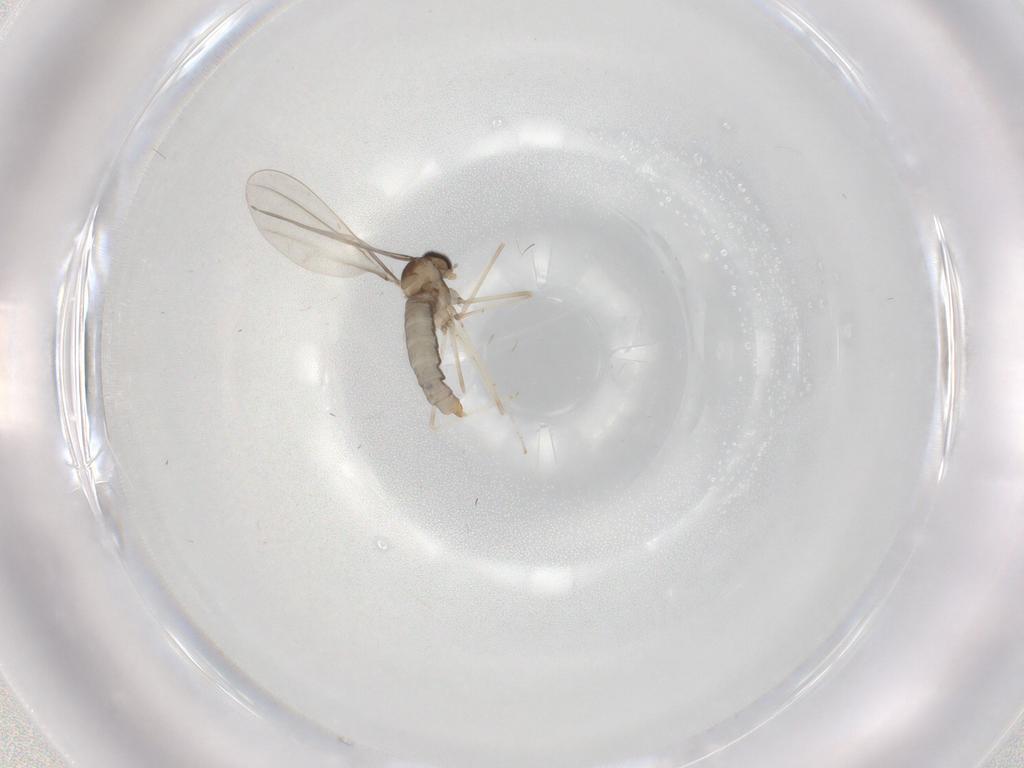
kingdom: Animalia
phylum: Arthropoda
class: Insecta
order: Diptera
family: Cecidomyiidae
